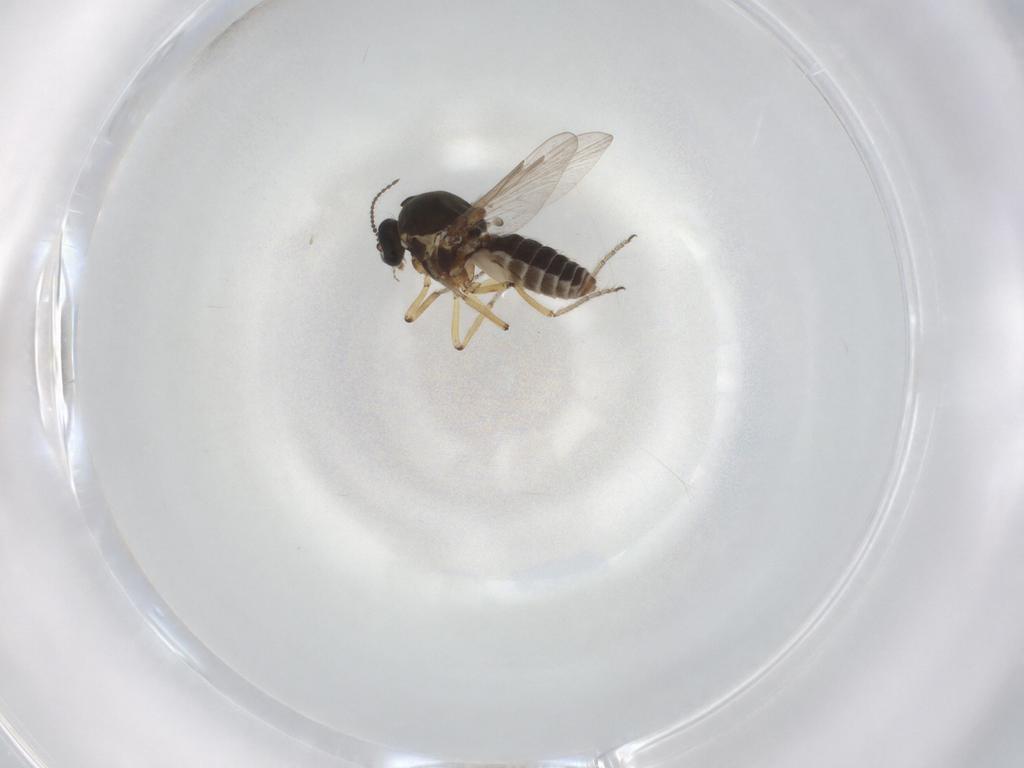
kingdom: Animalia
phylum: Arthropoda
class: Insecta
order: Diptera
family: Ceratopogonidae
